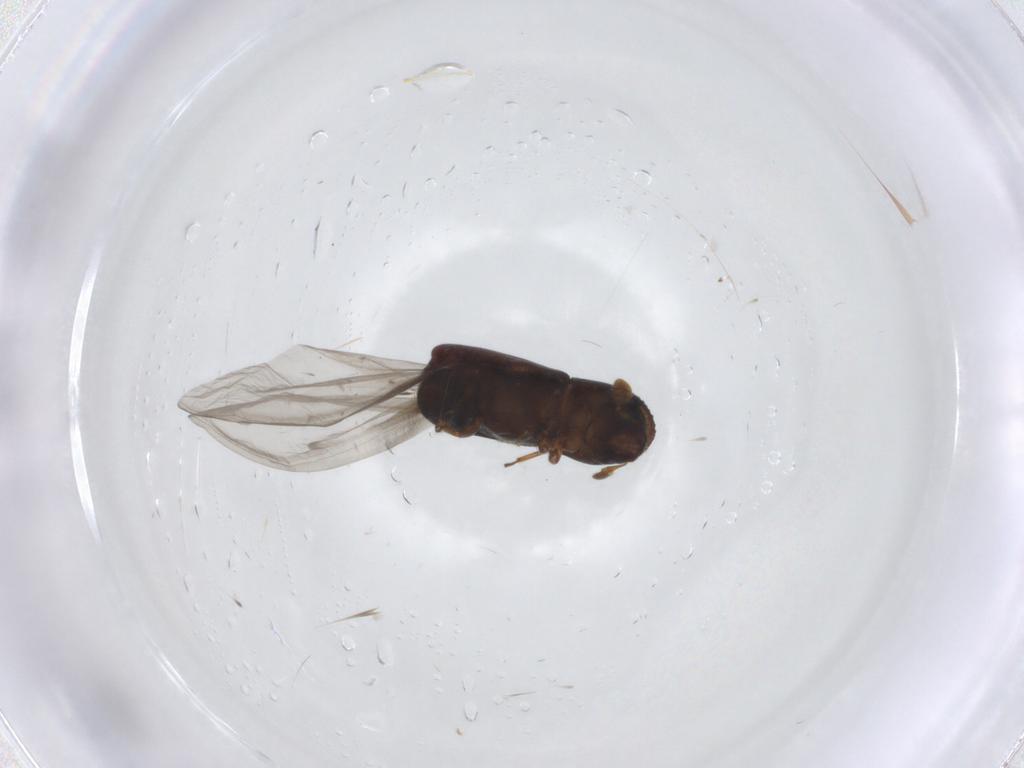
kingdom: Animalia
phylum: Arthropoda
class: Insecta
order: Coleoptera
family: Curculionidae
